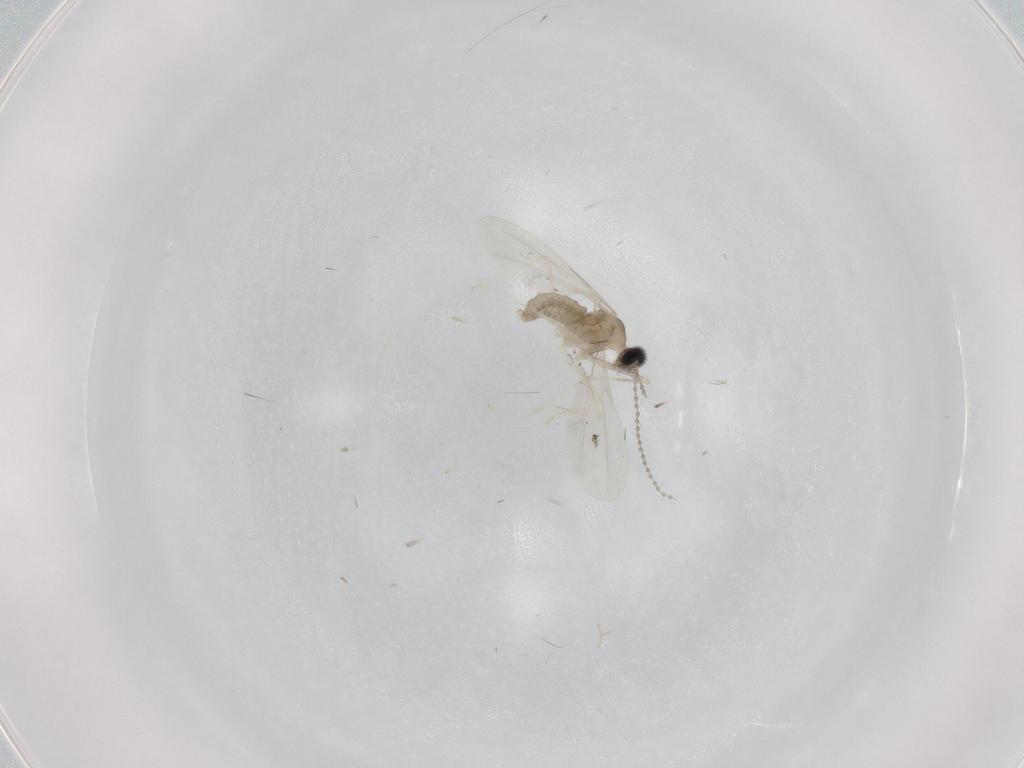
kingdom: Animalia
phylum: Arthropoda
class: Insecta
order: Diptera
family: Cecidomyiidae
